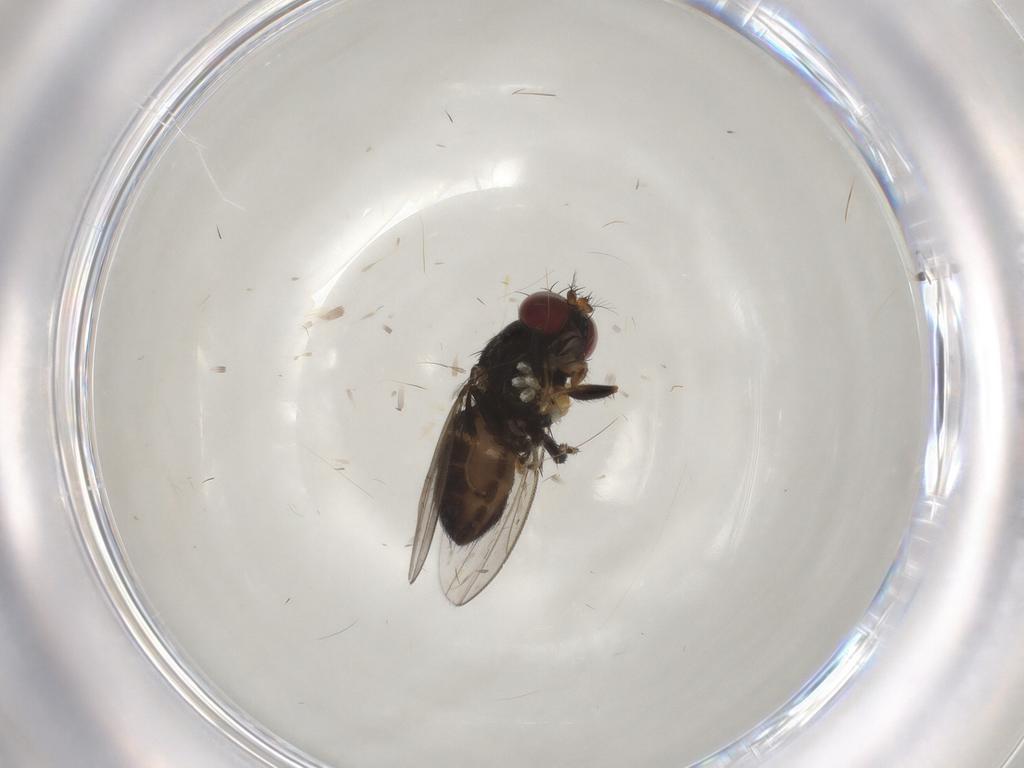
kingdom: Animalia
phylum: Arthropoda
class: Insecta
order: Diptera
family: Ephydridae
